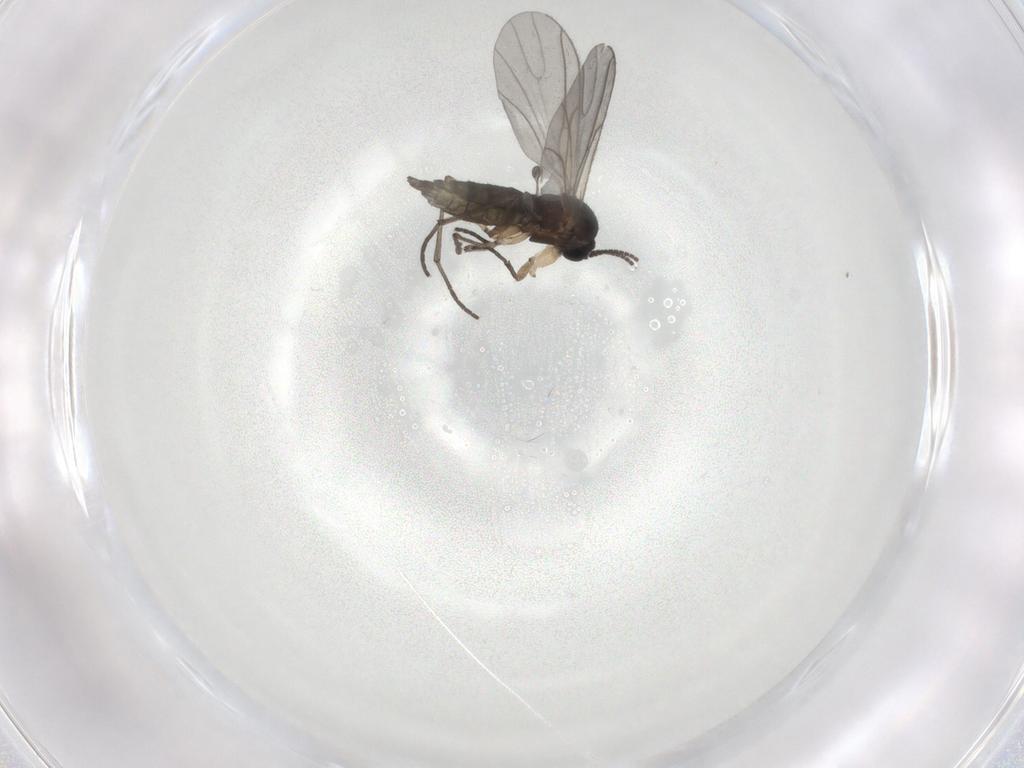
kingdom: Animalia
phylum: Arthropoda
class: Insecta
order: Diptera
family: Sciaridae
